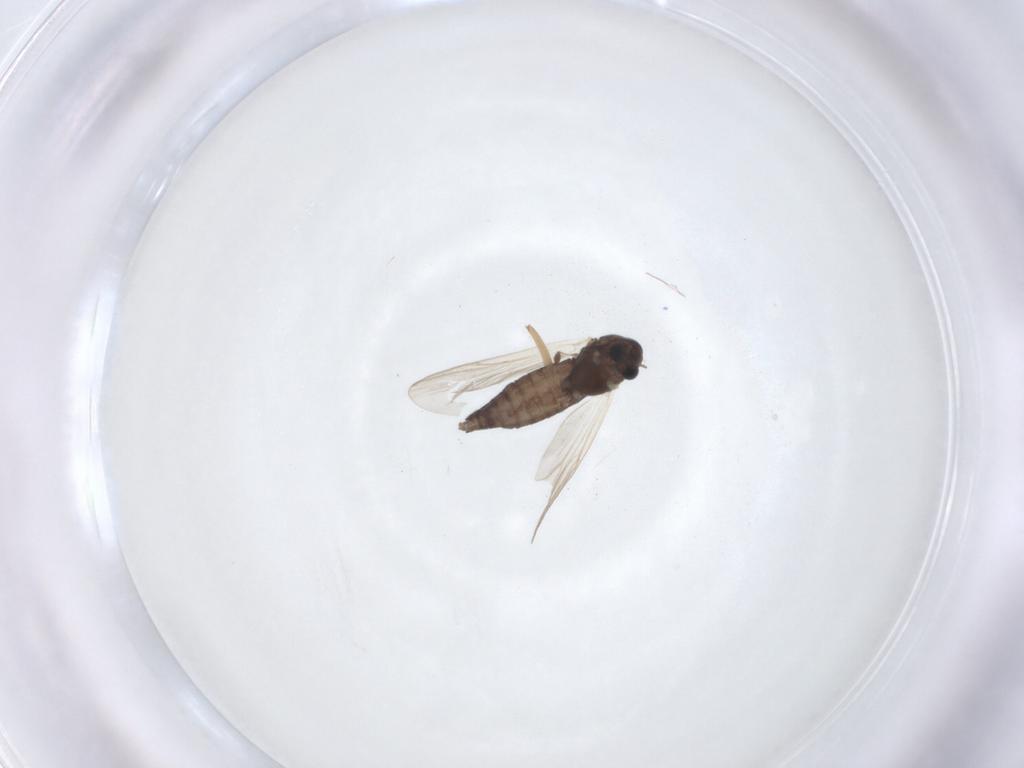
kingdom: Animalia
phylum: Arthropoda
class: Insecta
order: Diptera
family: Chironomidae
